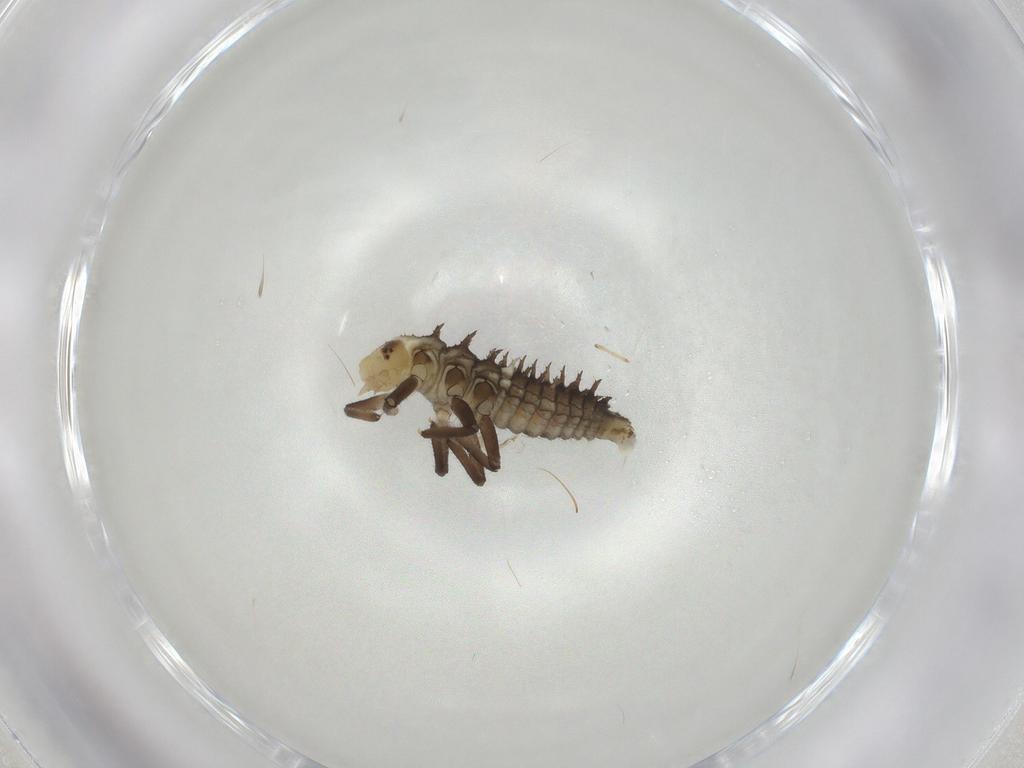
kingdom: Animalia
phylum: Arthropoda
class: Insecta
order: Coleoptera
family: Coccinellidae
